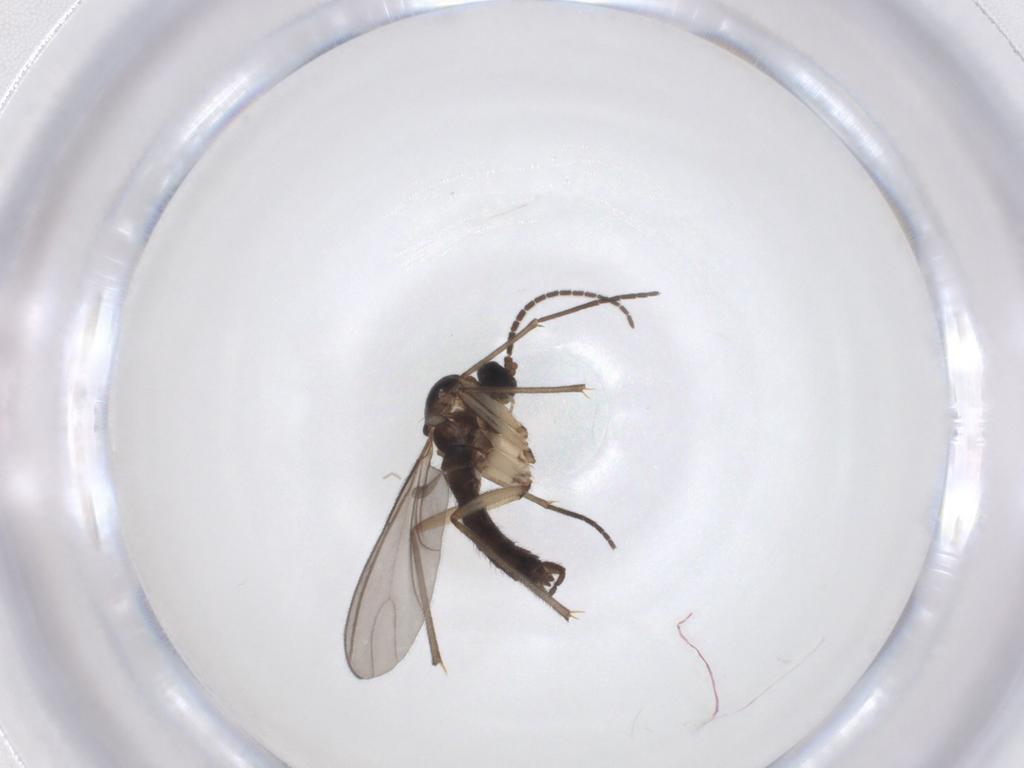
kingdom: Animalia
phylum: Arthropoda
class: Insecta
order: Diptera
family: Sciaridae
